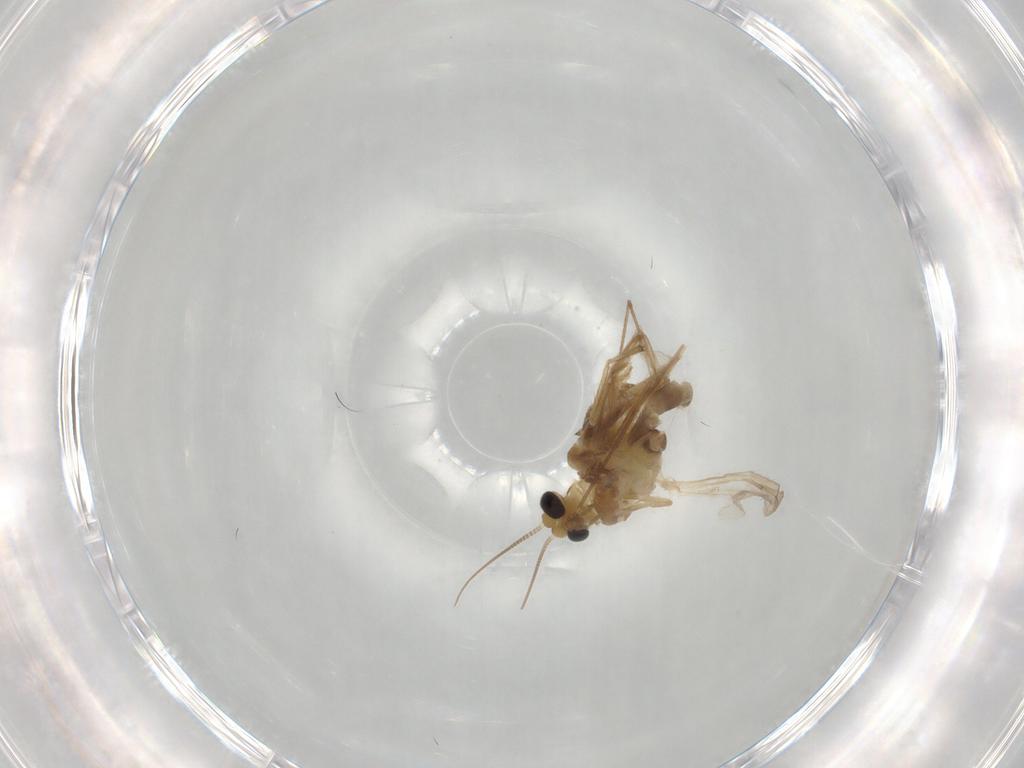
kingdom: Animalia
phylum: Arthropoda
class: Insecta
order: Diptera
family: Chironomidae
